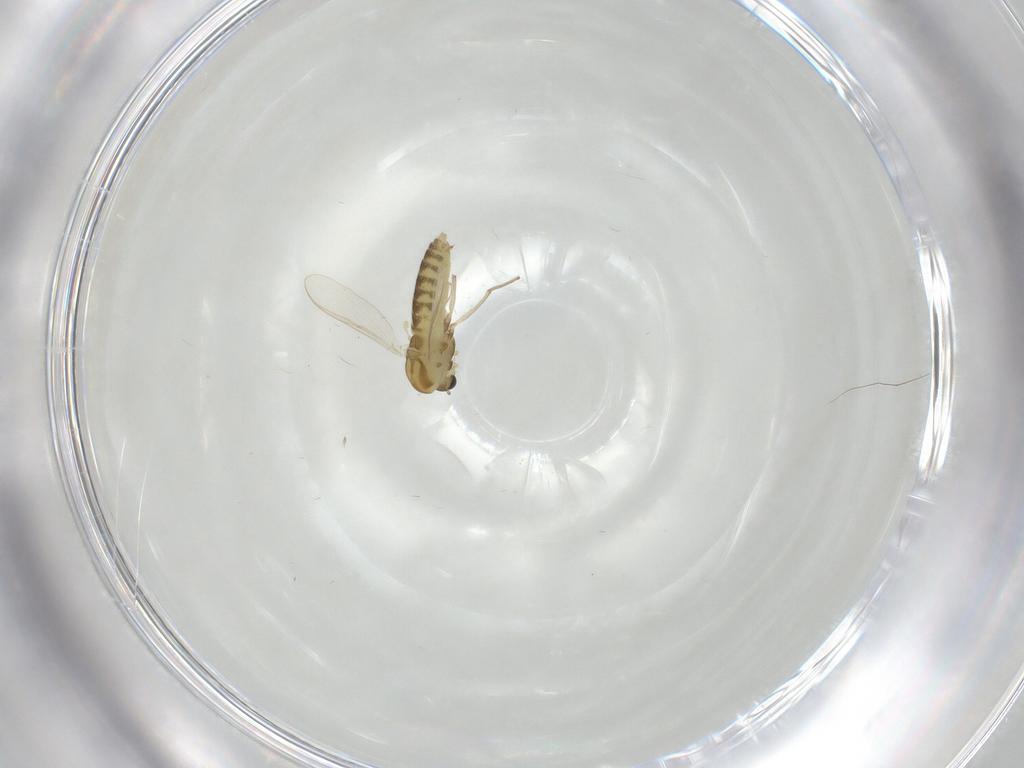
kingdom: Animalia
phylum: Arthropoda
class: Insecta
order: Diptera
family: Chironomidae
